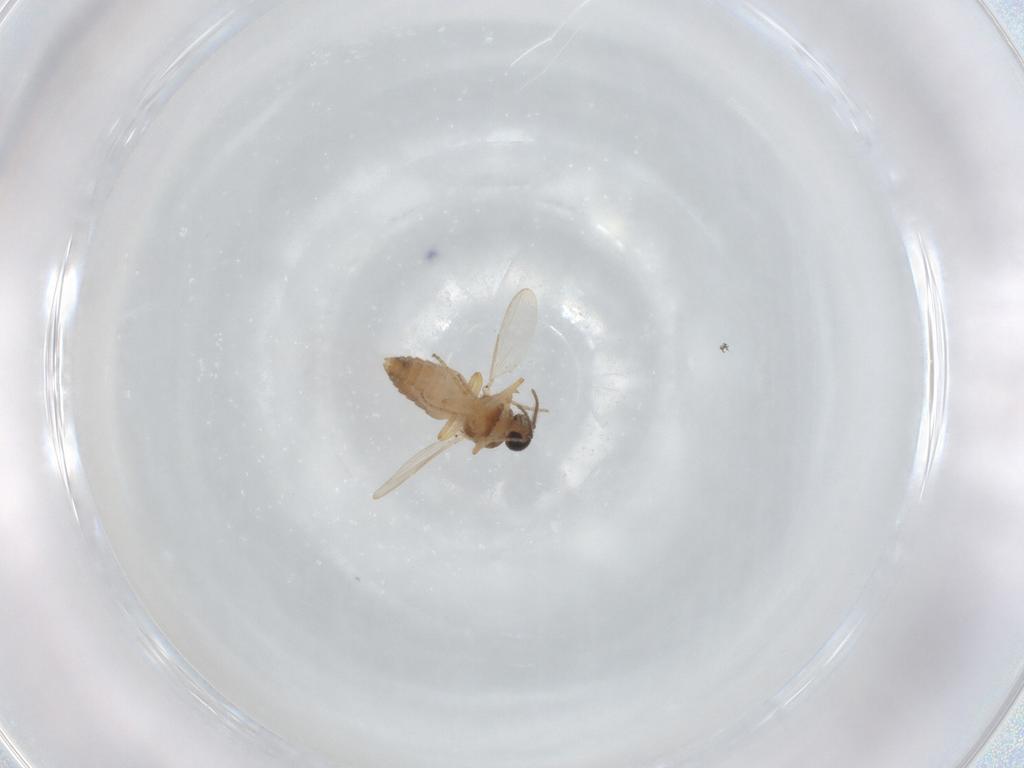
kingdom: Animalia
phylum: Arthropoda
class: Insecta
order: Diptera
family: Ceratopogonidae
